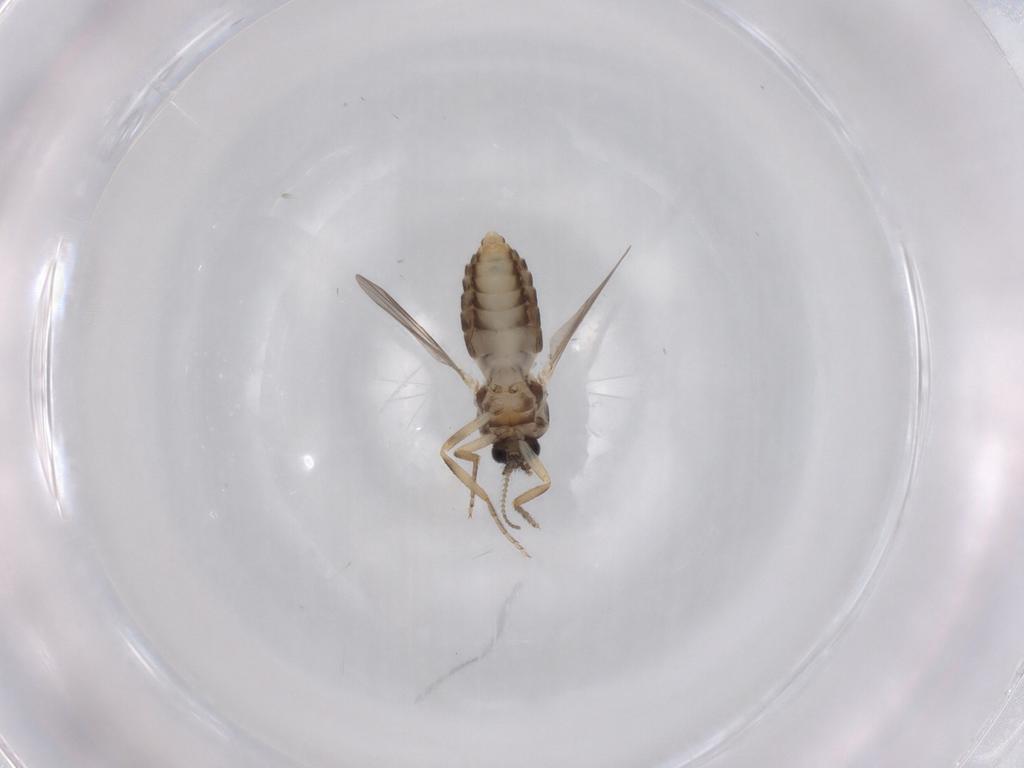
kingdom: Animalia
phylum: Arthropoda
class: Insecta
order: Diptera
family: Ceratopogonidae
